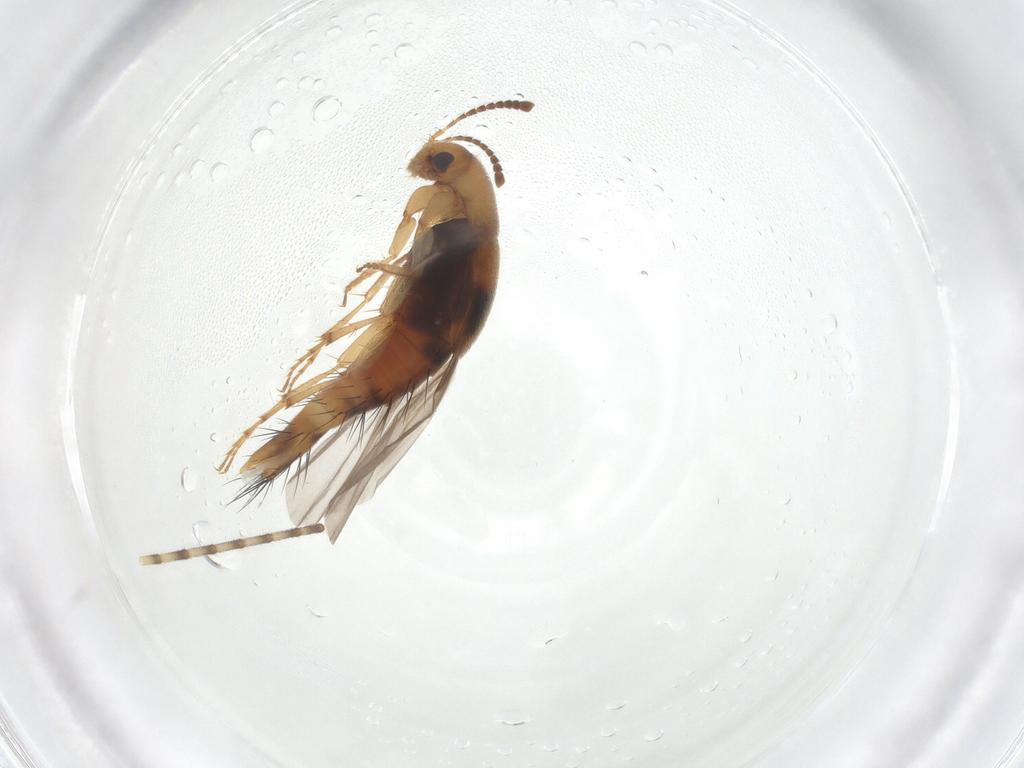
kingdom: Animalia
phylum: Arthropoda
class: Insecta
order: Coleoptera
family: Staphylinidae
